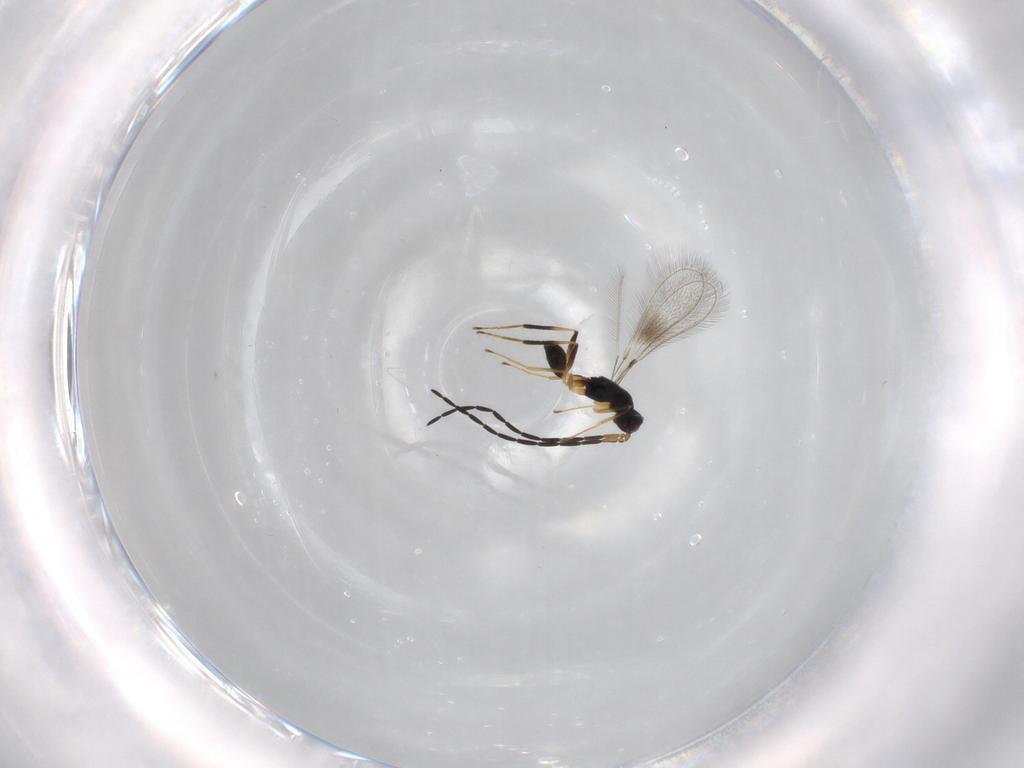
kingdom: Animalia
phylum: Arthropoda
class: Insecta
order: Hymenoptera
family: Mymaridae
